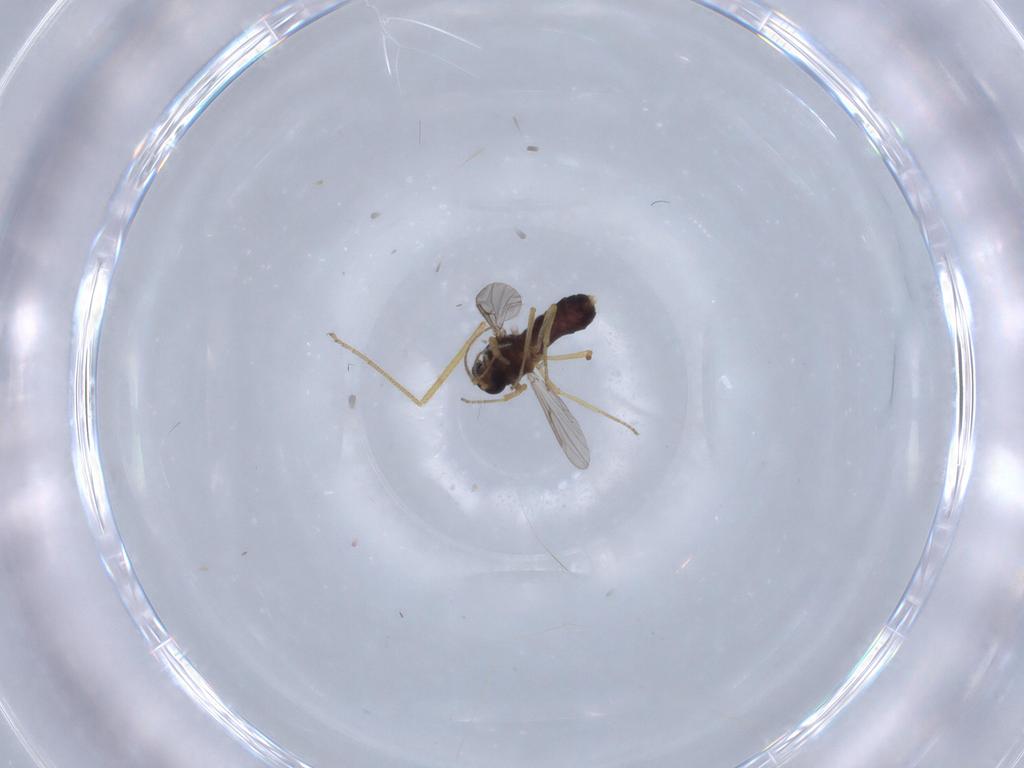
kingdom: Animalia
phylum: Arthropoda
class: Insecta
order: Diptera
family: Ceratopogonidae
